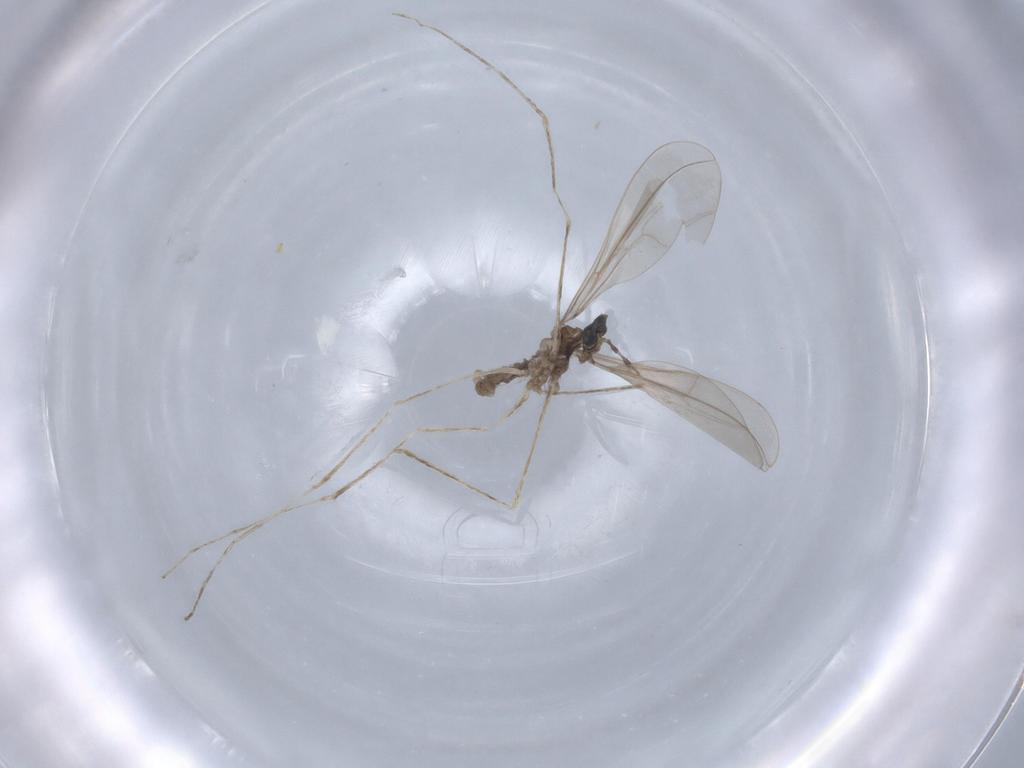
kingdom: Animalia
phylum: Arthropoda
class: Insecta
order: Diptera
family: Cecidomyiidae
